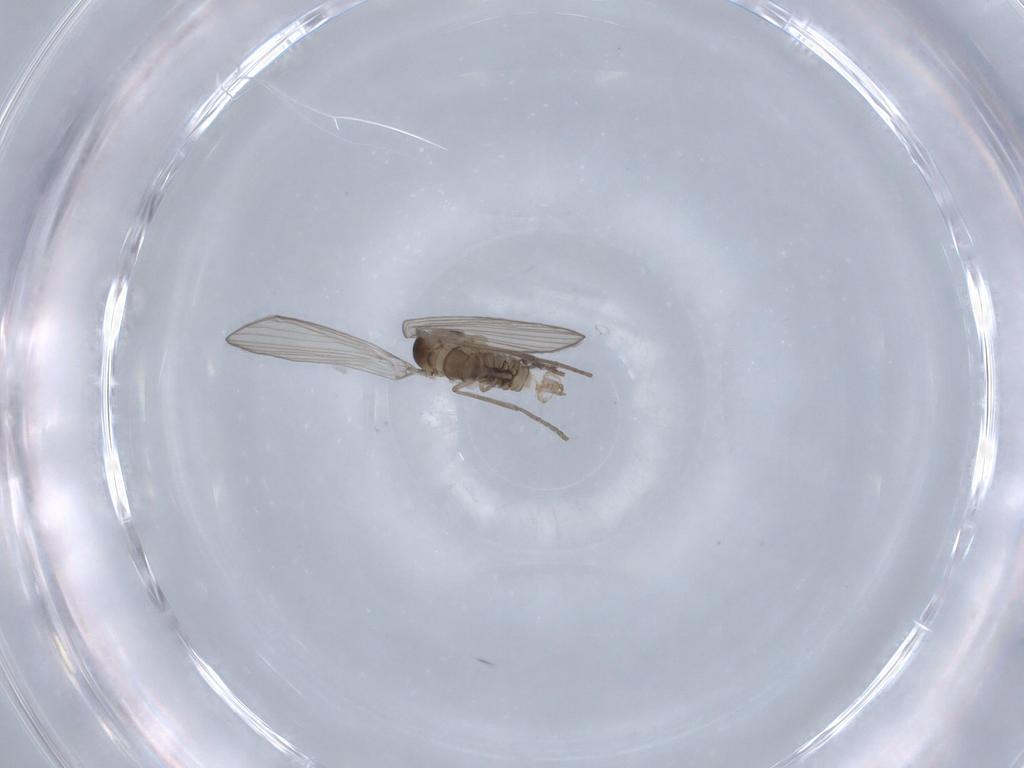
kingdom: Animalia
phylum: Arthropoda
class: Insecta
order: Diptera
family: Psychodidae
